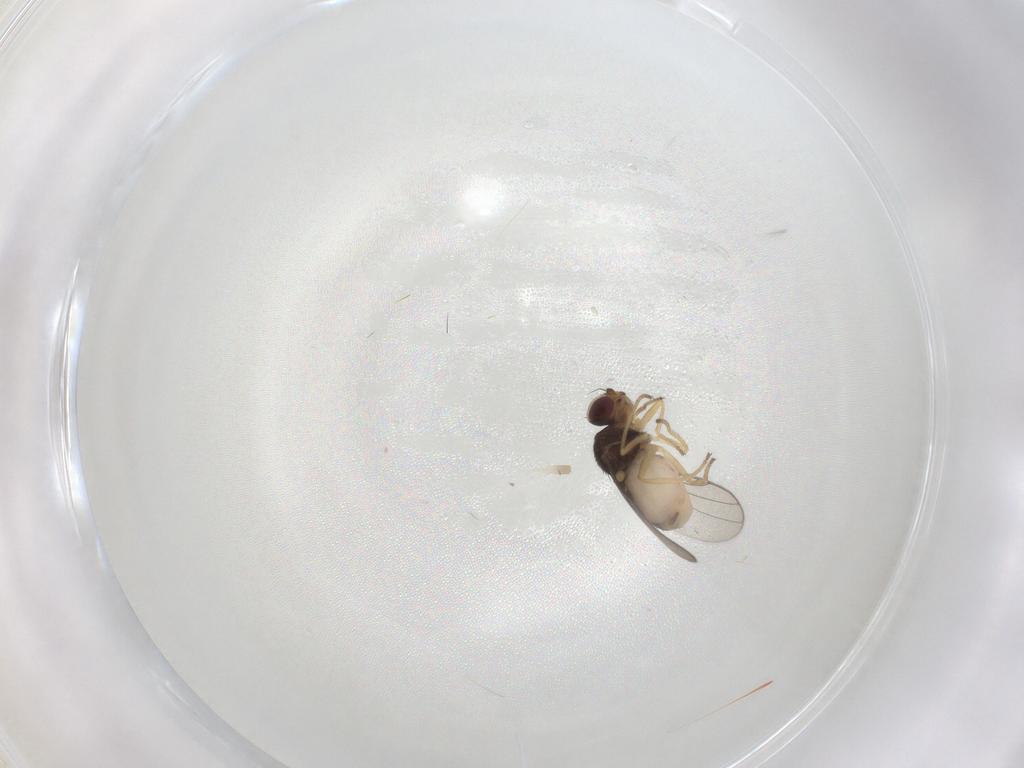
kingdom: Animalia
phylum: Arthropoda
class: Insecta
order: Diptera
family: Chloropidae
